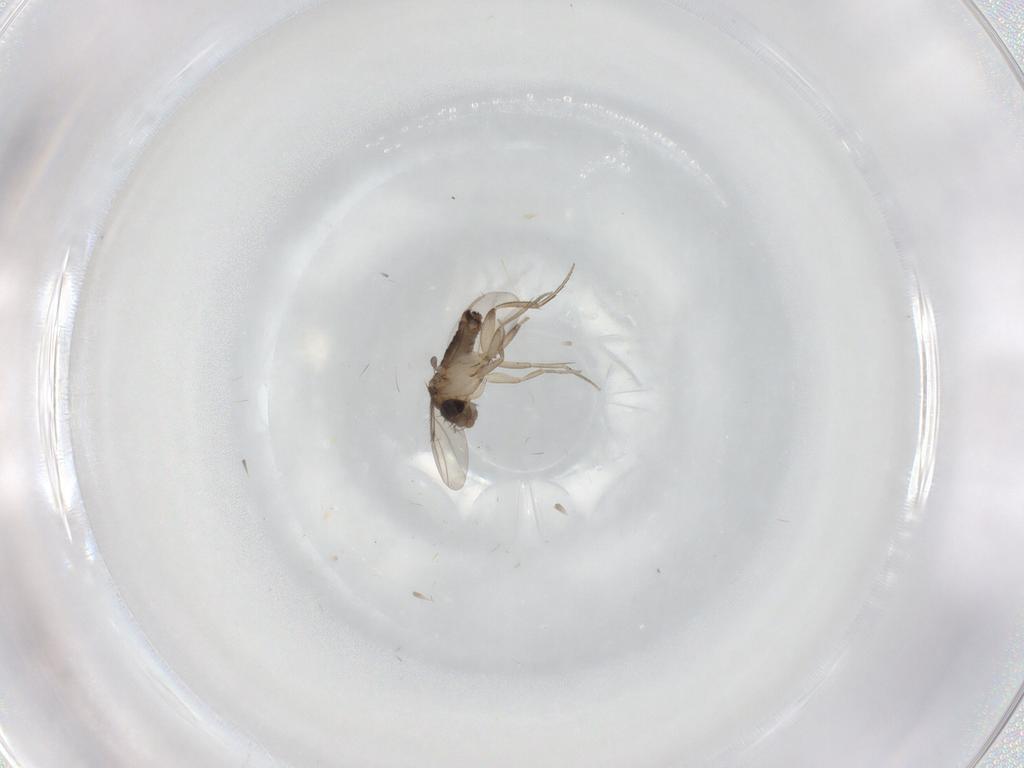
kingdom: Animalia
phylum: Arthropoda
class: Insecta
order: Diptera
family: Phoridae
